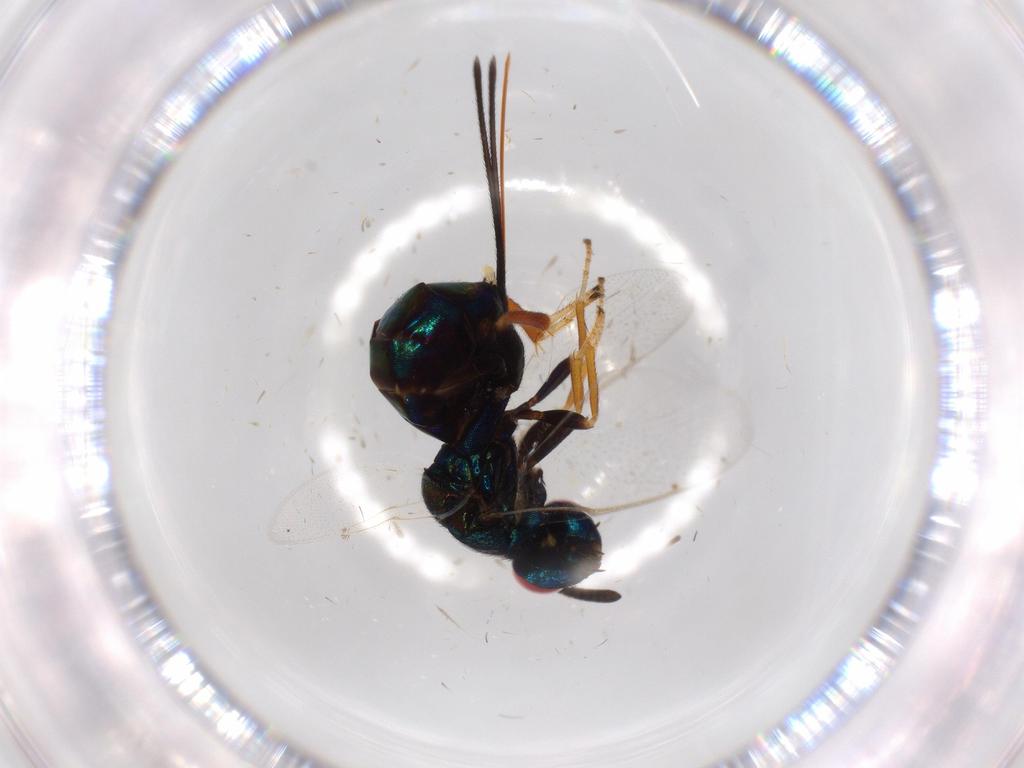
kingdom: Animalia
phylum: Arthropoda
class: Insecta
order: Hymenoptera
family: Torymidae
